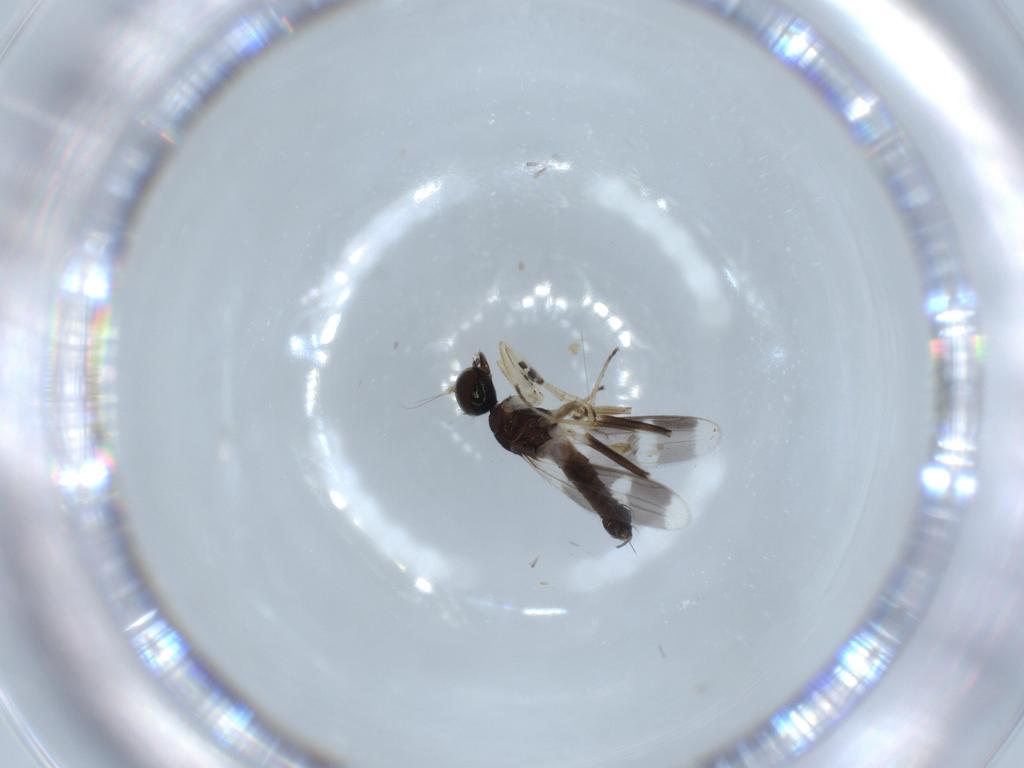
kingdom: Animalia
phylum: Arthropoda
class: Insecta
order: Diptera
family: Hybotidae
